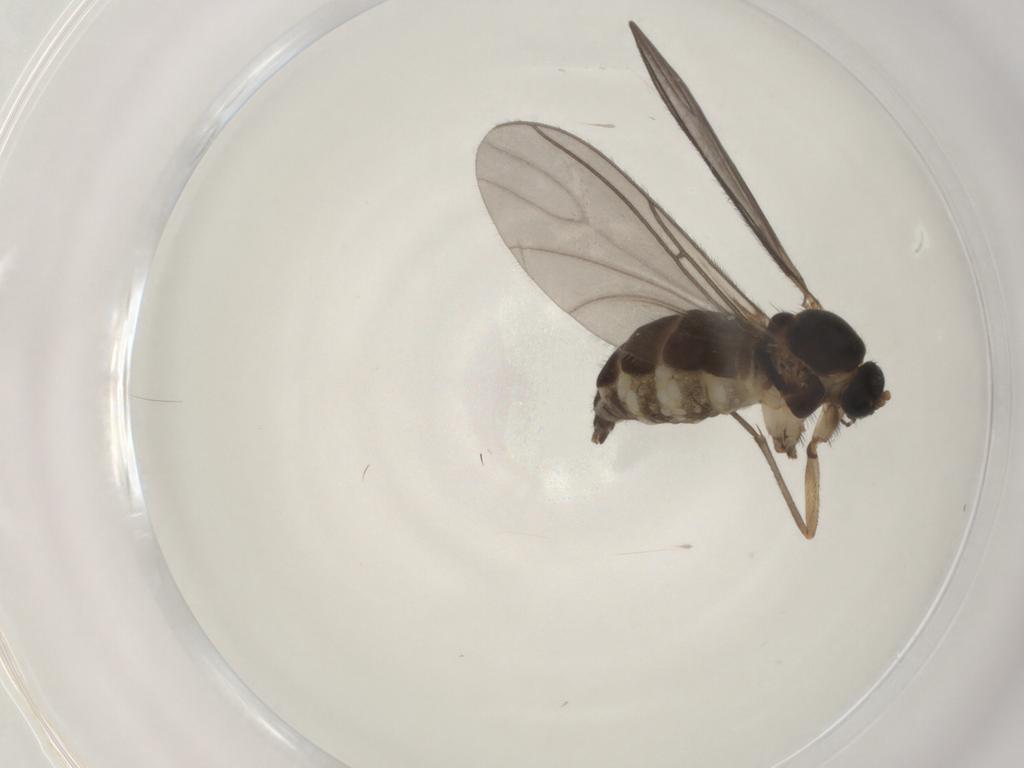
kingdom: Animalia
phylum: Arthropoda
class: Insecta
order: Diptera
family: Sciaridae
